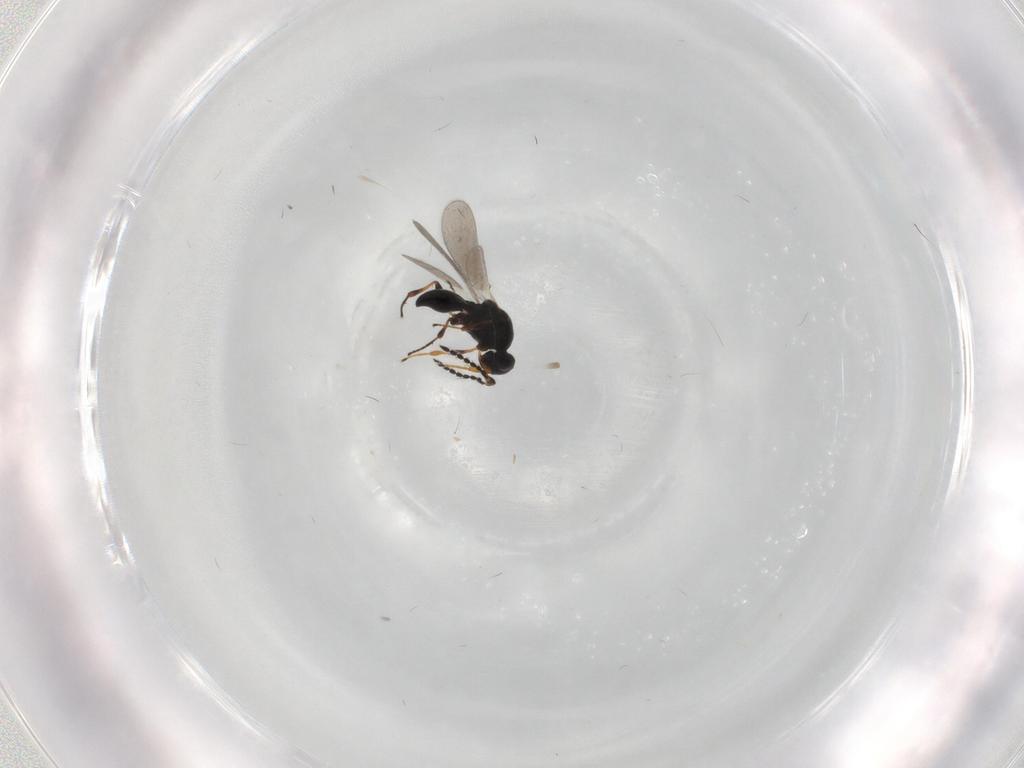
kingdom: Animalia
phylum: Arthropoda
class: Insecta
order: Hymenoptera
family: Platygastridae
